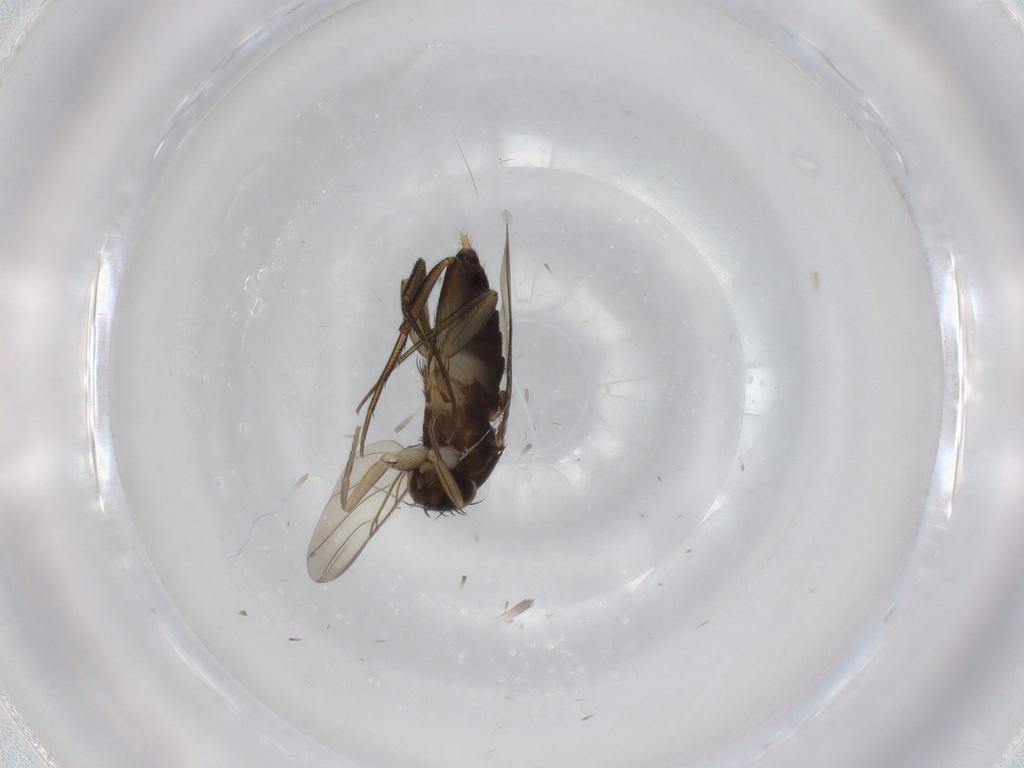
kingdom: Animalia
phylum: Arthropoda
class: Insecta
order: Diptera
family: Phoridae
